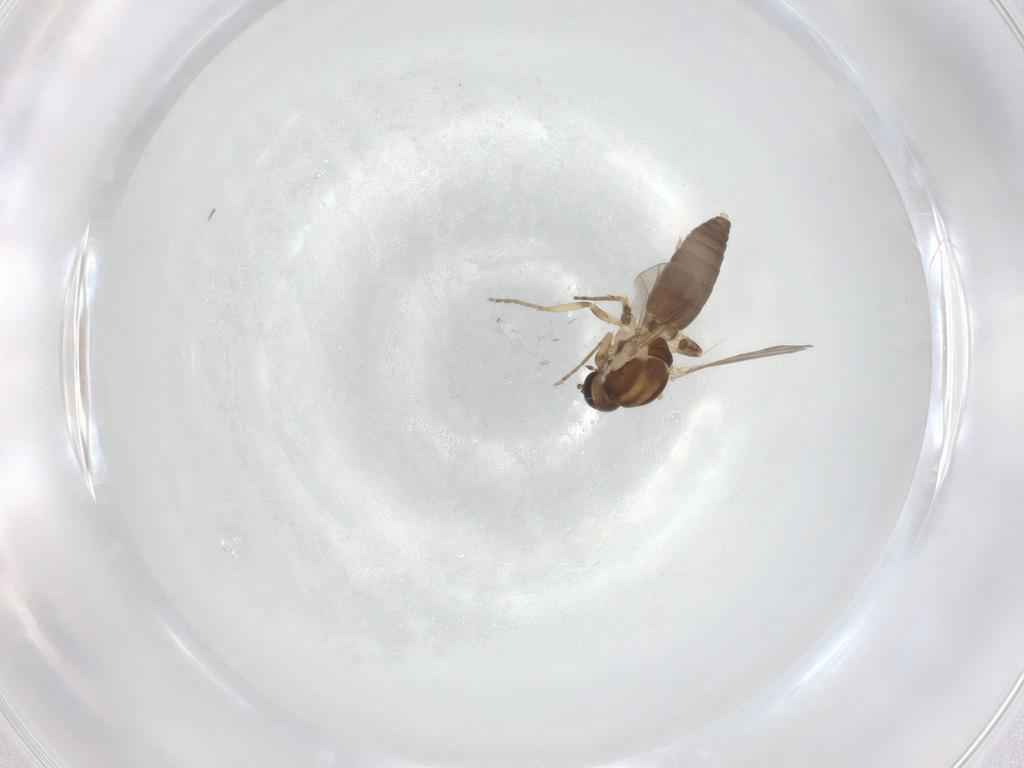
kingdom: Animalia
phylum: Arthropoda
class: Insecta
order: Diptera
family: Ceratopogonidae
